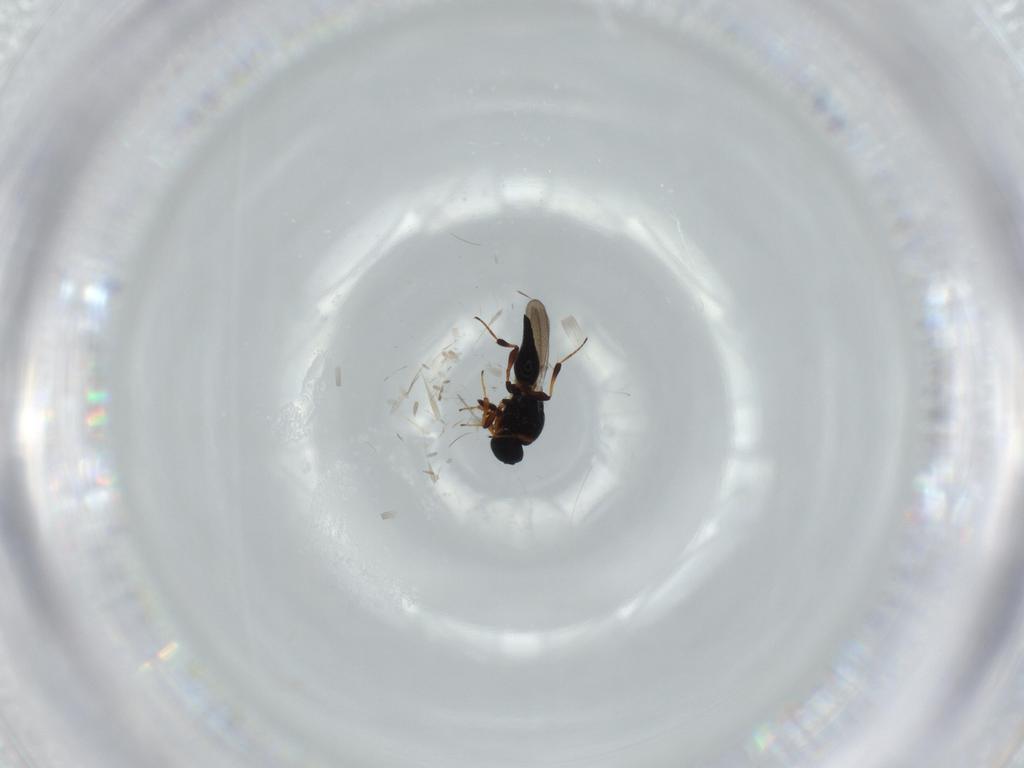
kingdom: Animalia
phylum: Arthropoda
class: Insecta
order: Hymenoptera
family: Platygastridae
